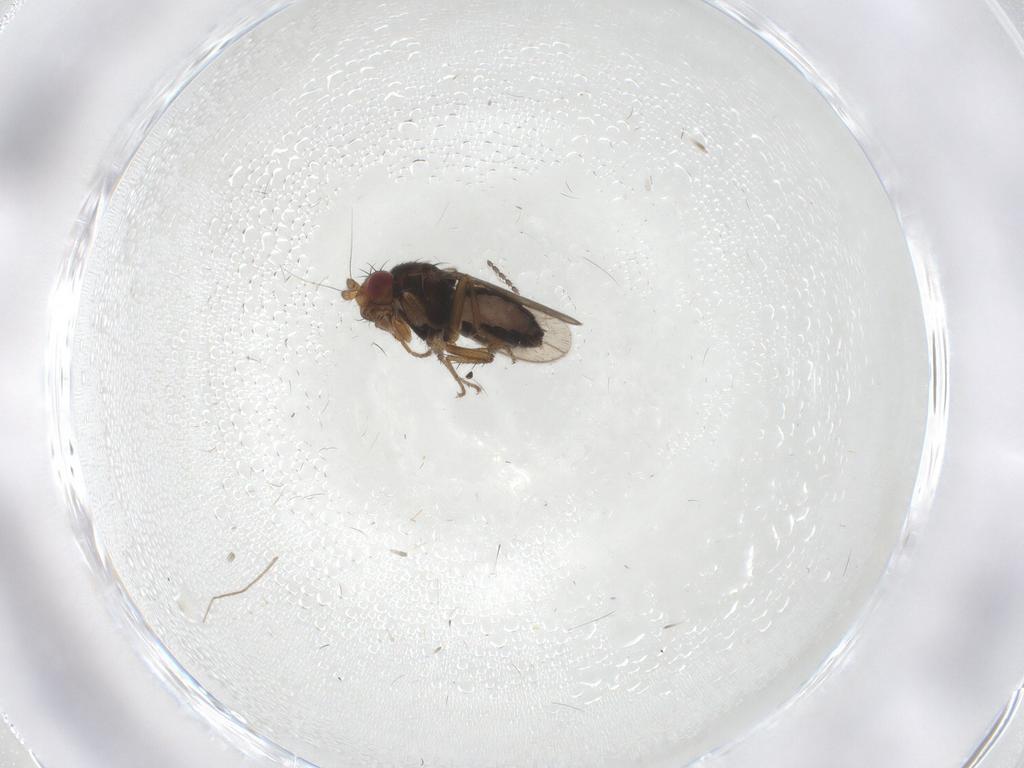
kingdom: Animalia
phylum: Arthropoda
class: Insecta
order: Diptera
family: Sphaeroceridae
